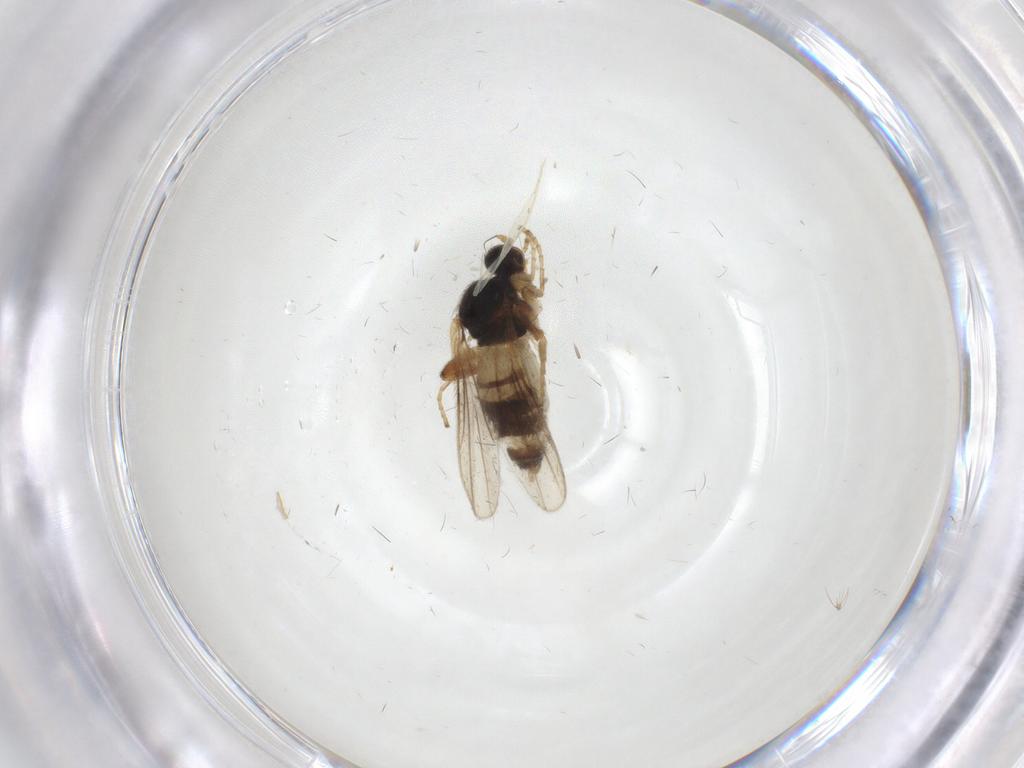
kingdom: Animalia
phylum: Arthropoda
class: Insecta
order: Diptera
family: Hybotidae
